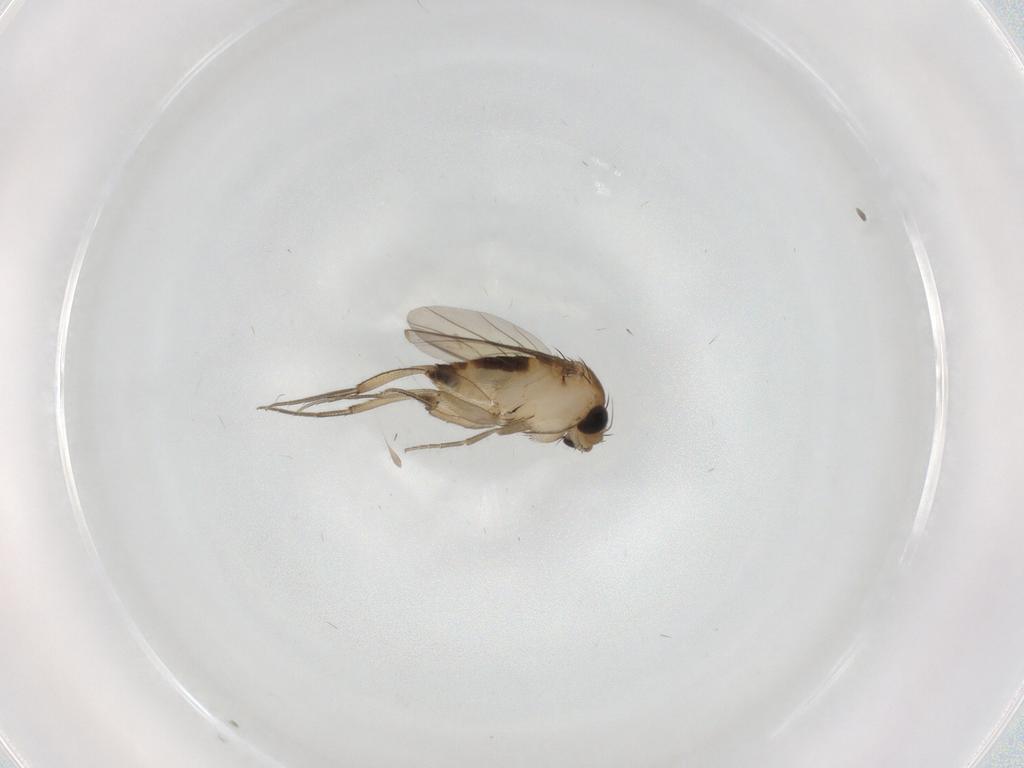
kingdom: Animalia
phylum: Arthropoda
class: Insecta
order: Diptera
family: Phoridae
